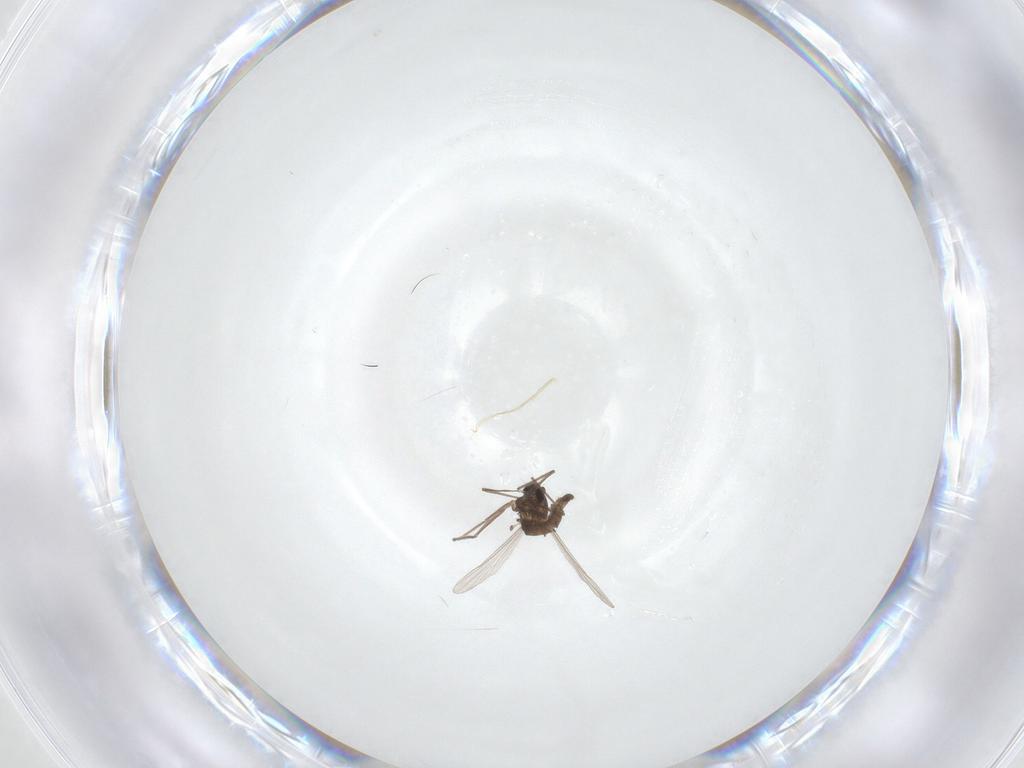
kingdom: Animalia
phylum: Arthropoda
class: Insecta
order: Diptera
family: Chironomidae
